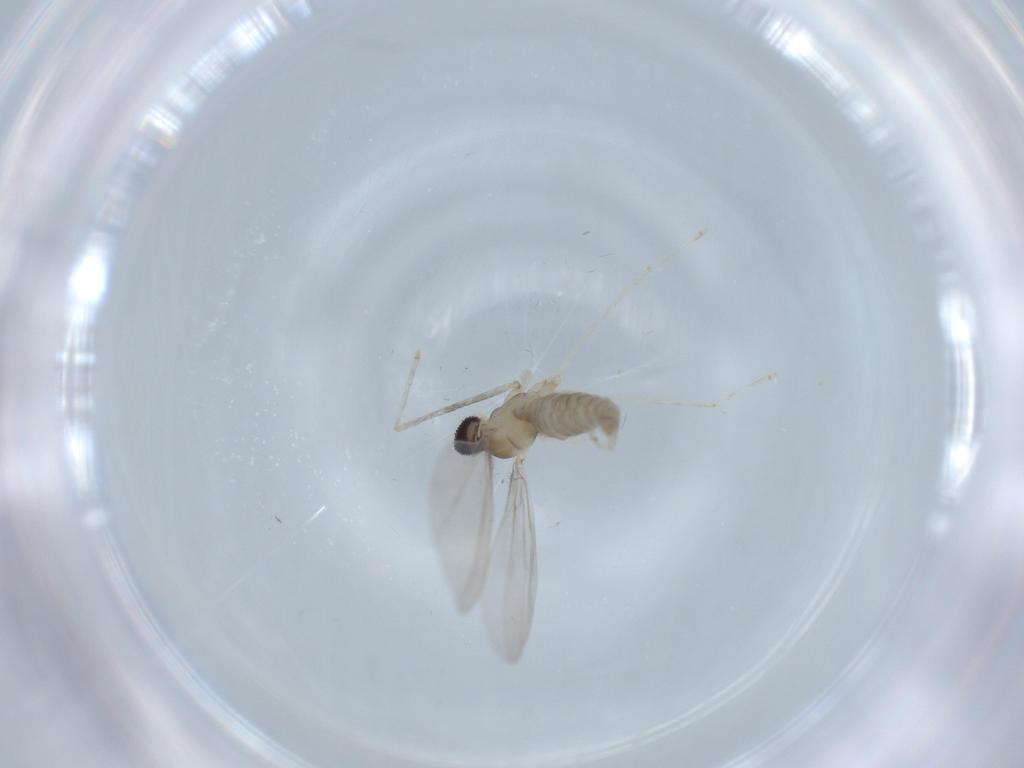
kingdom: Animalia
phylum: Arthropoda
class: Insecta
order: Diptera
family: Cecidomyiidae
